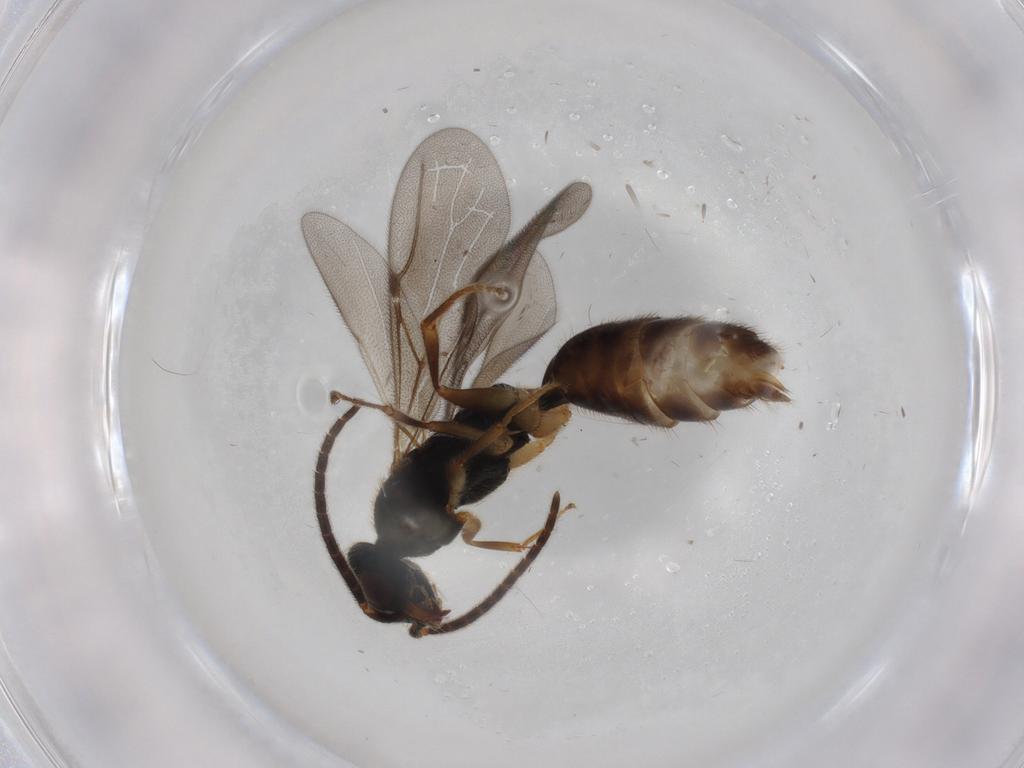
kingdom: Animalia
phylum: Arthropoda
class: Insecta
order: Hymenoptera
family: Bethylidae
